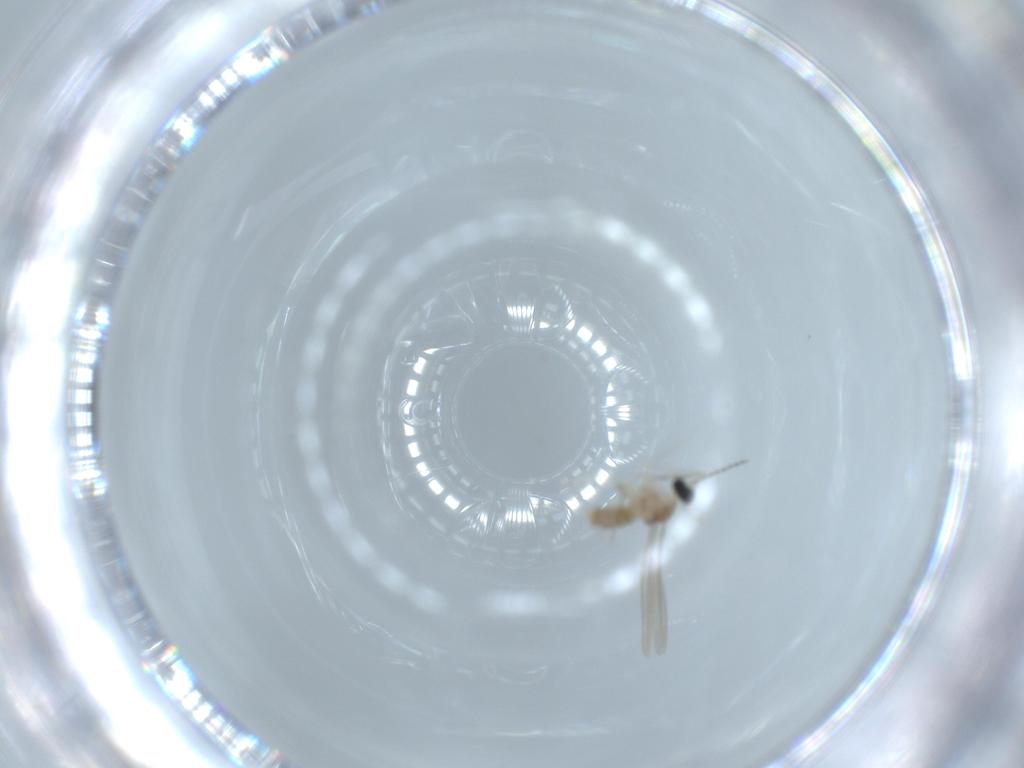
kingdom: Animalia
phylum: Arthropoda
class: Insecta
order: Diptera
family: Cecidomyiidae
